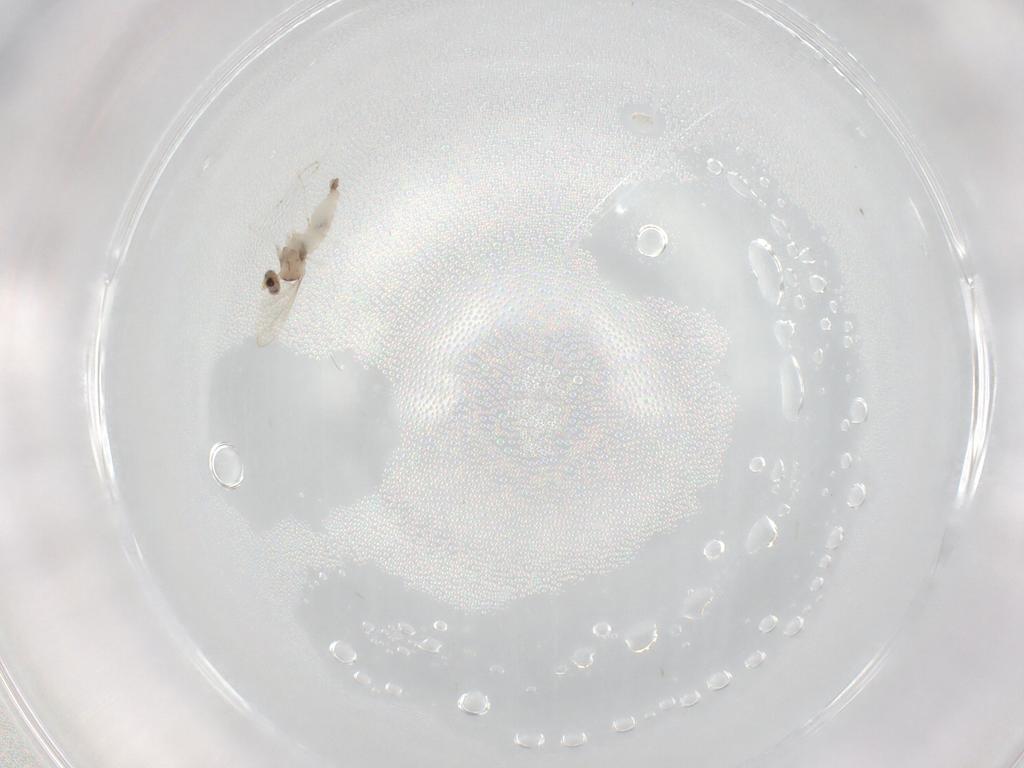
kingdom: Animalia
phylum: Arthropoda
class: Insecta
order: Diptera
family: Cecidomyiidae
